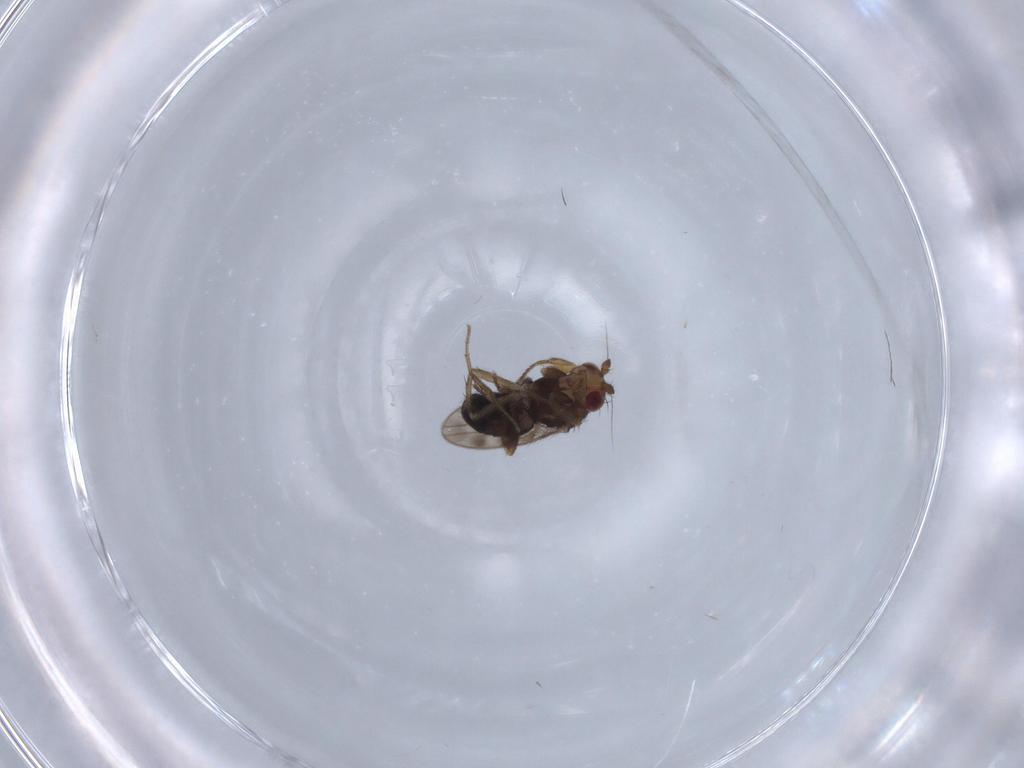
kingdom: Animalia
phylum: Arthropoda
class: Insecta
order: Diptera
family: Sphaeroceridae
